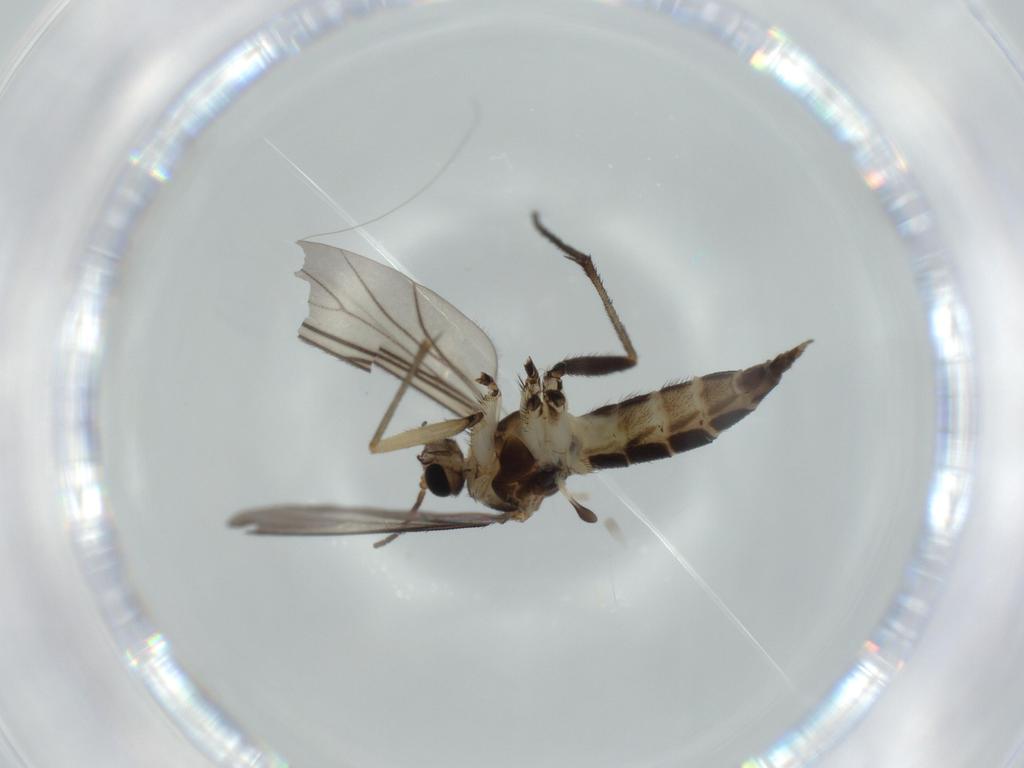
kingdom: Animalia
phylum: Arthropoda
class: Insecta
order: Diptera
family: Sciaridae
